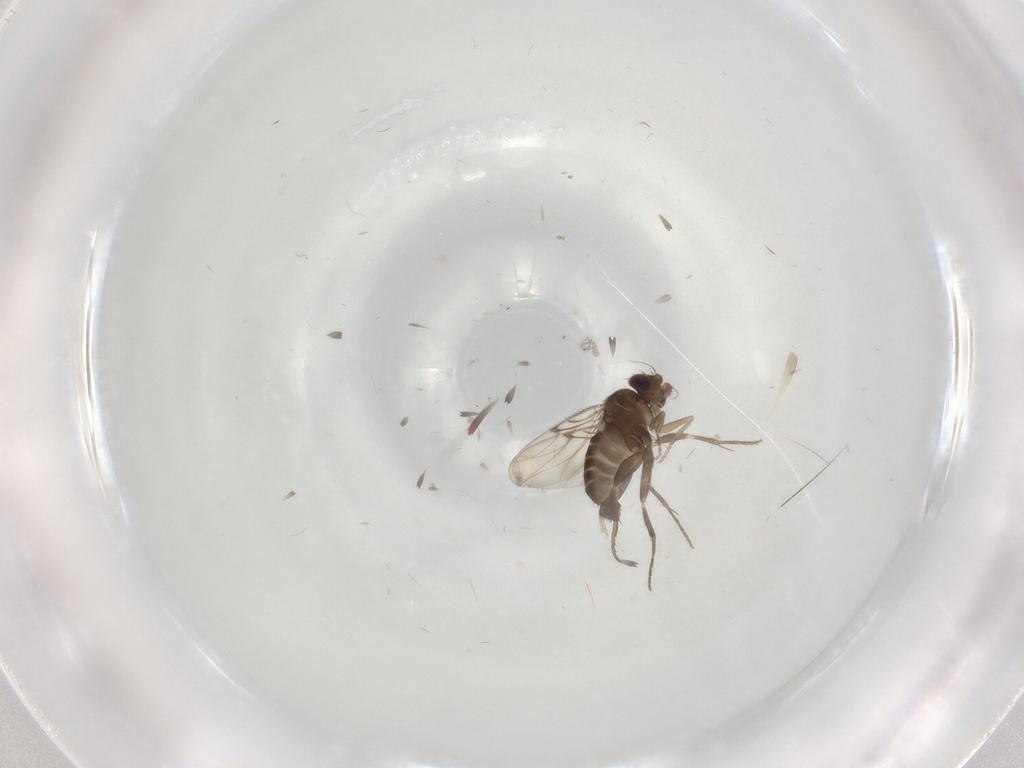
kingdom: Animalia
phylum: Arthropoda
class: Insecta
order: Diptera
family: Phoridae
